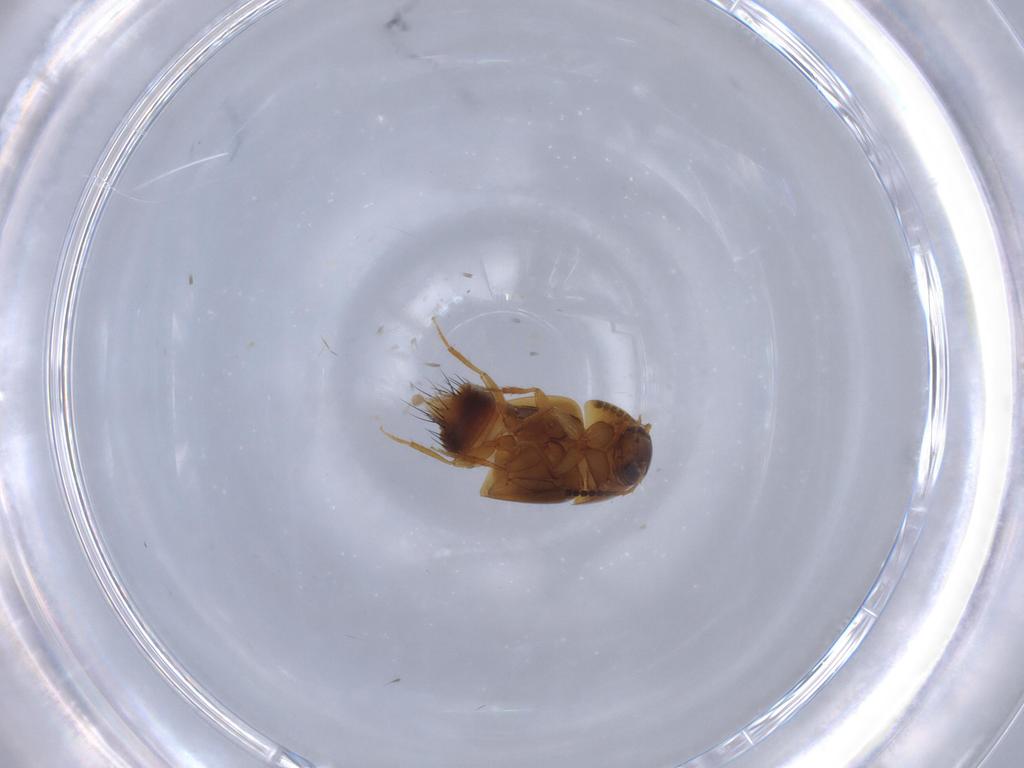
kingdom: Animalia
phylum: Arthropoda
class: Insecta
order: Coleoptera
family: Staphylinidae
